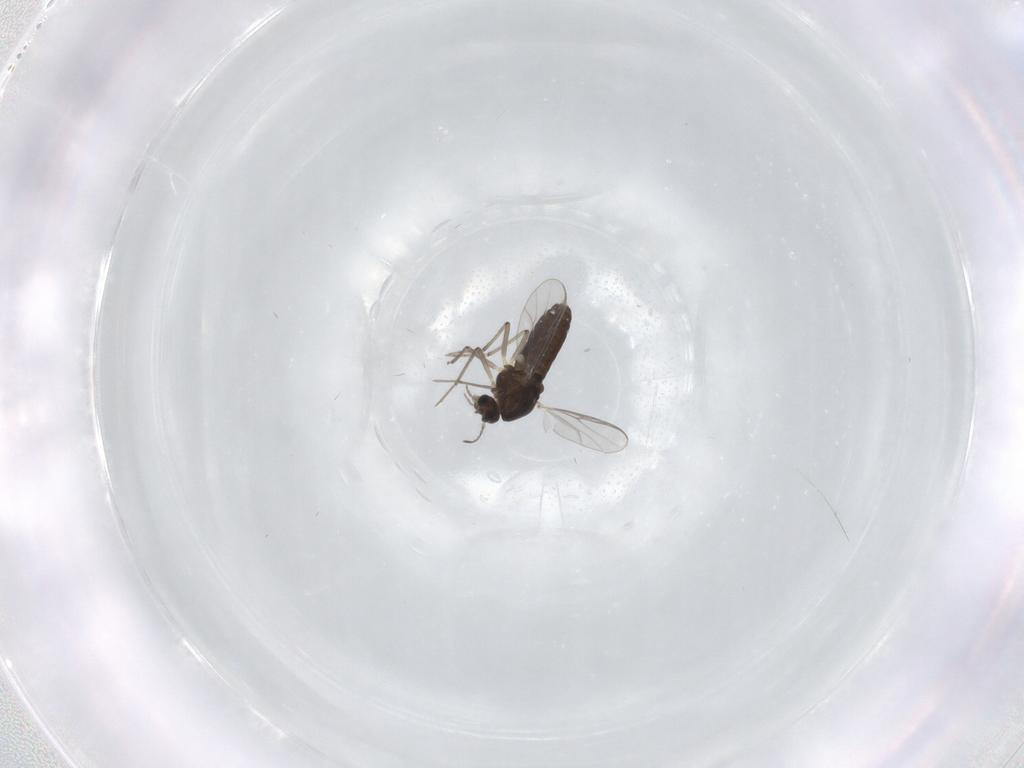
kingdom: Animalia
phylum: Arthropoda
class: Insecta
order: Diptera
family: Chironomidae
